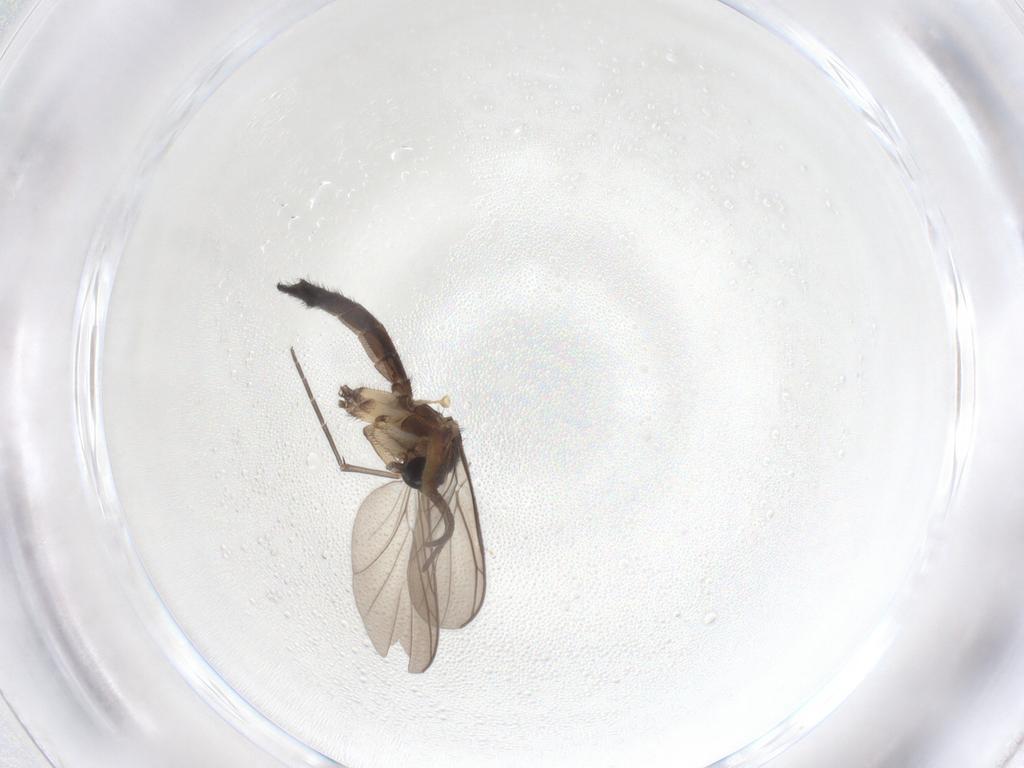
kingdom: Animalia
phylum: Arthropoda
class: Insecta
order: Diptera
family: Keroplatidae
